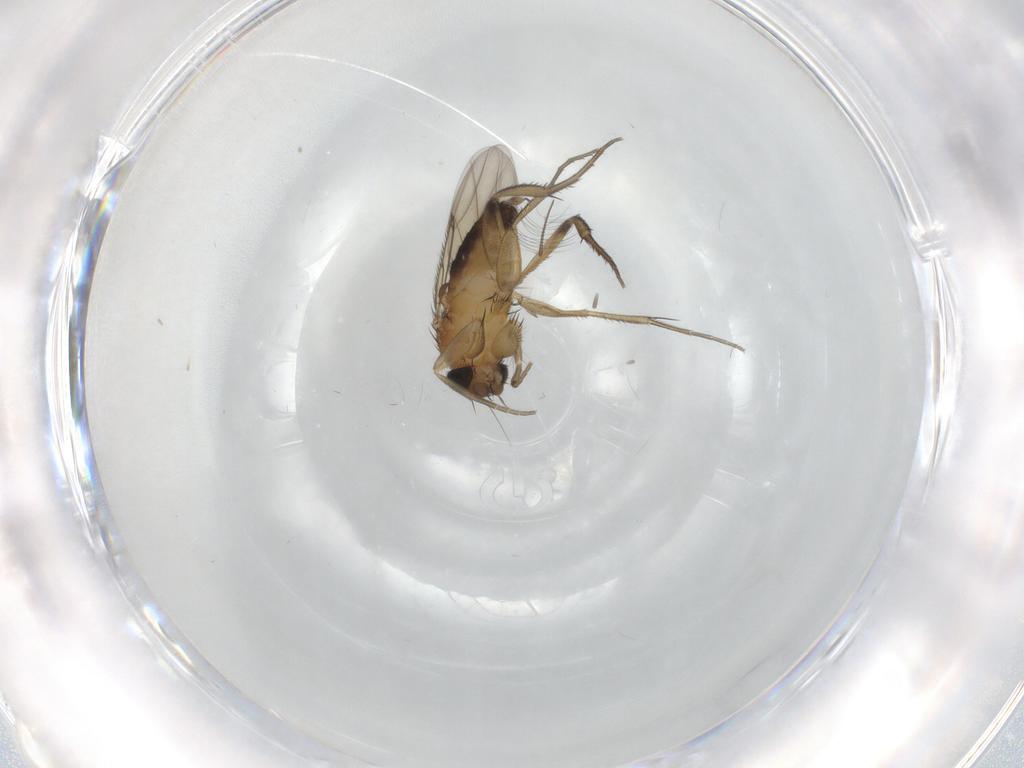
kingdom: Animalia
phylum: Arthropoda
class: Insecta
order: Diptera
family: Phoridae
